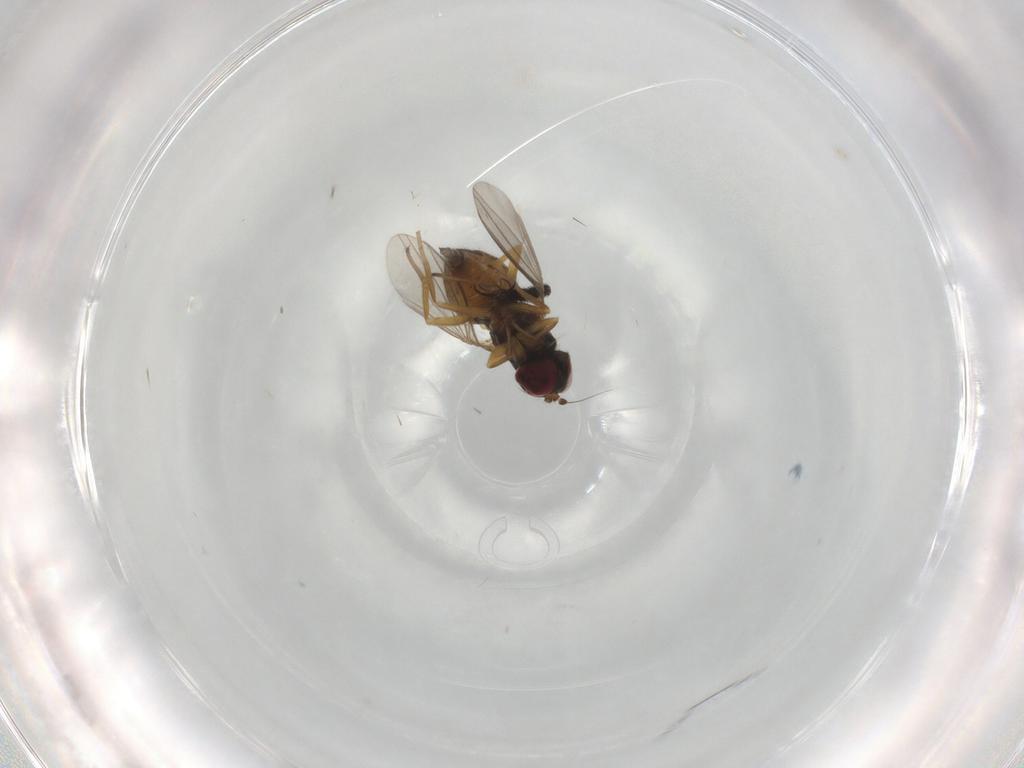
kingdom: Animalia
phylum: Arthropoda
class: Insecta
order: Diptera
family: Dolichopodidae
